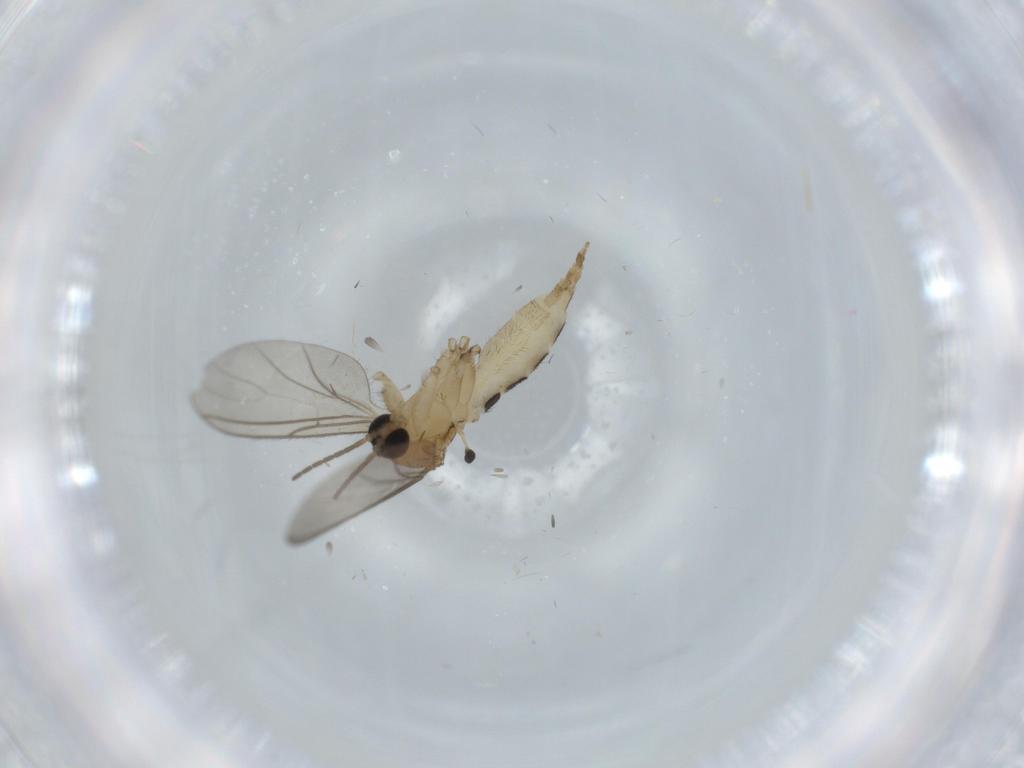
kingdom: Animalia
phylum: Arthropoda
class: Insecta
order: Diptera
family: Sciaridae
